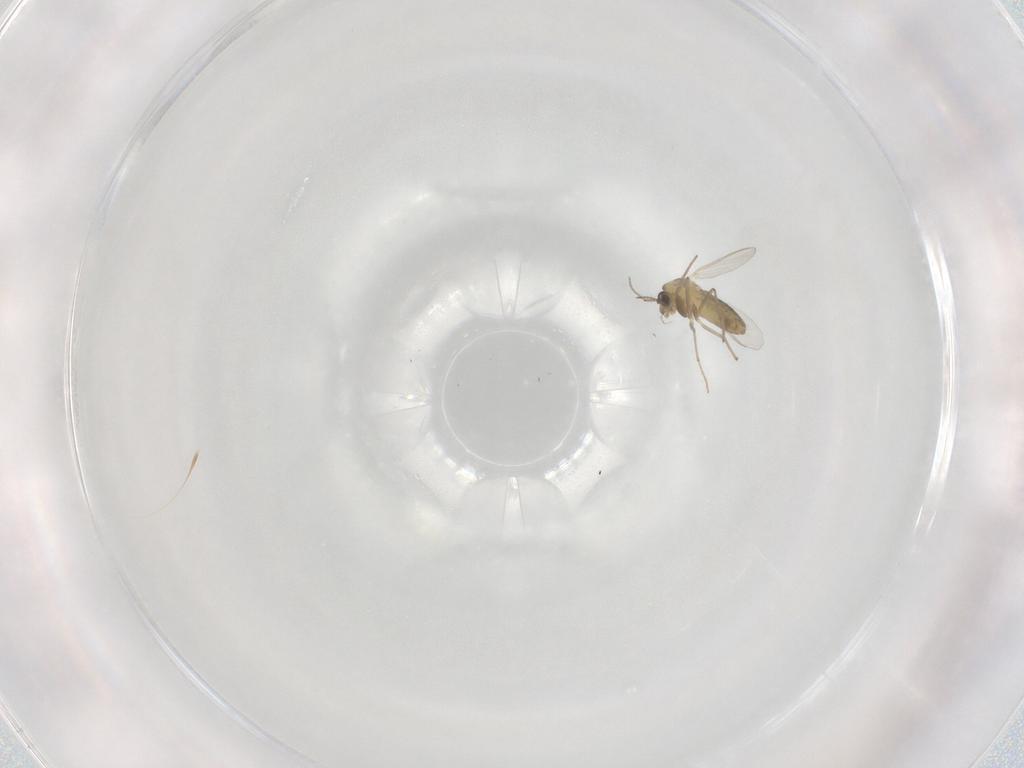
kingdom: Animalia
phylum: Arthropoda
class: Insecta
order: Diptera
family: Chironomidae
